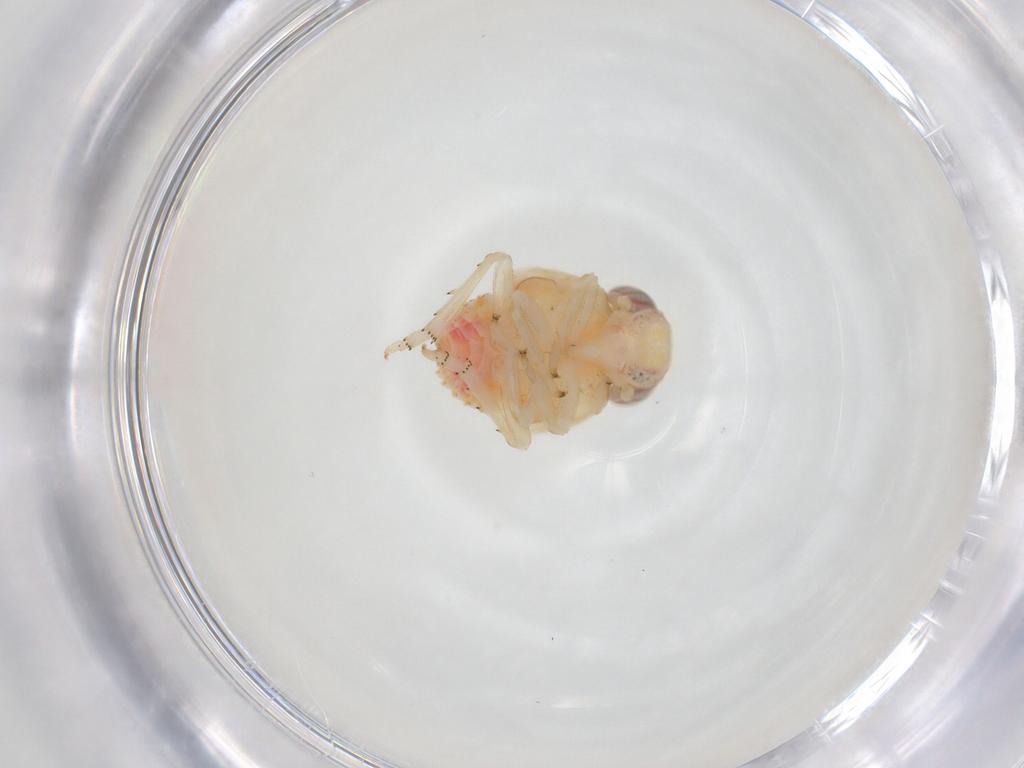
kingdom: Animalia
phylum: Arthropoda
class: Insecta
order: Hemiptera
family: Issidae
